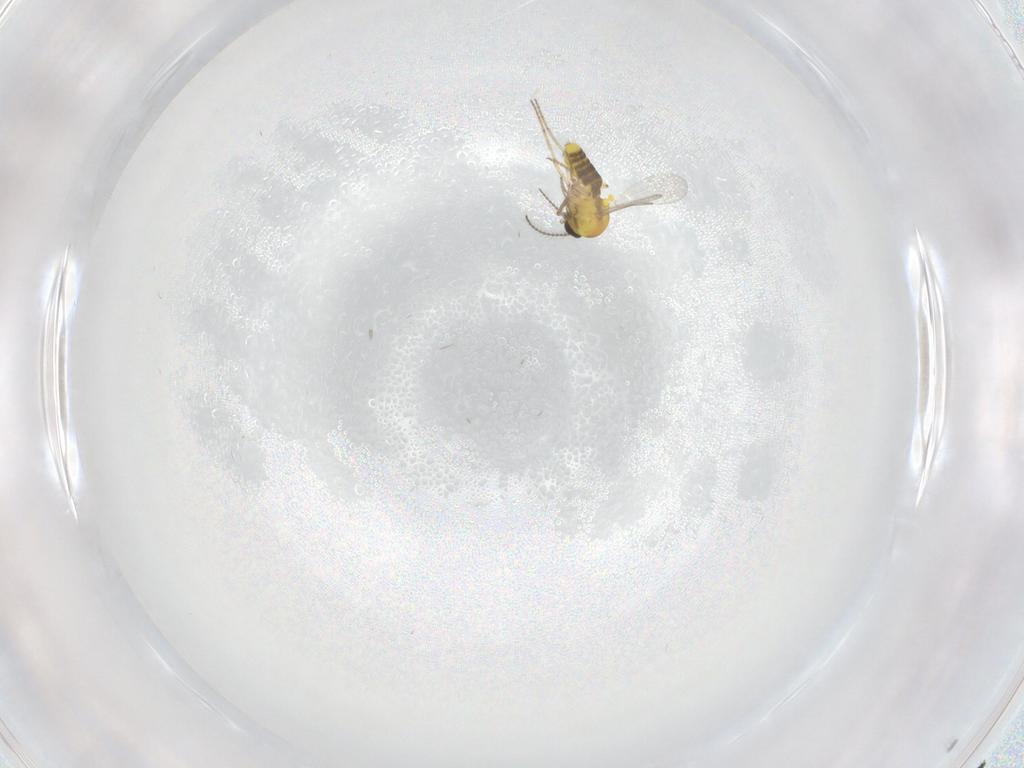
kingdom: Animalia
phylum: Arthropoda
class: Insecta
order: Diptera
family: Ceratopogonidae
